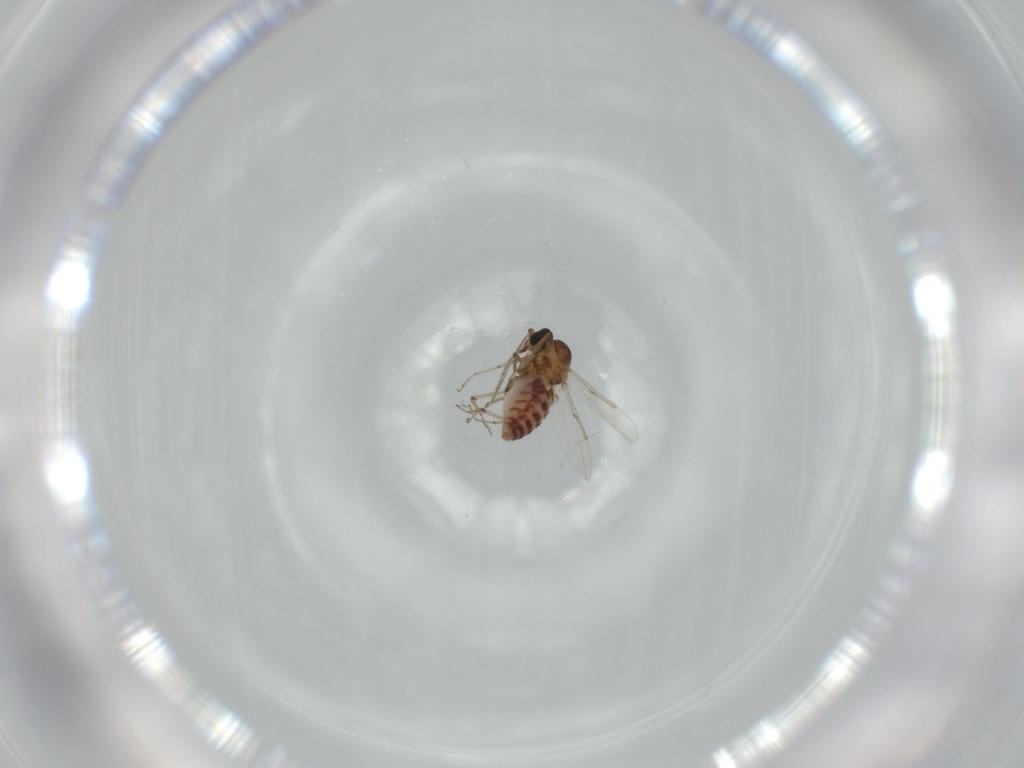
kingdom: Animalia
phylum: Arthropoda
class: Insecta
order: Diptera
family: Ceratopogonidae
